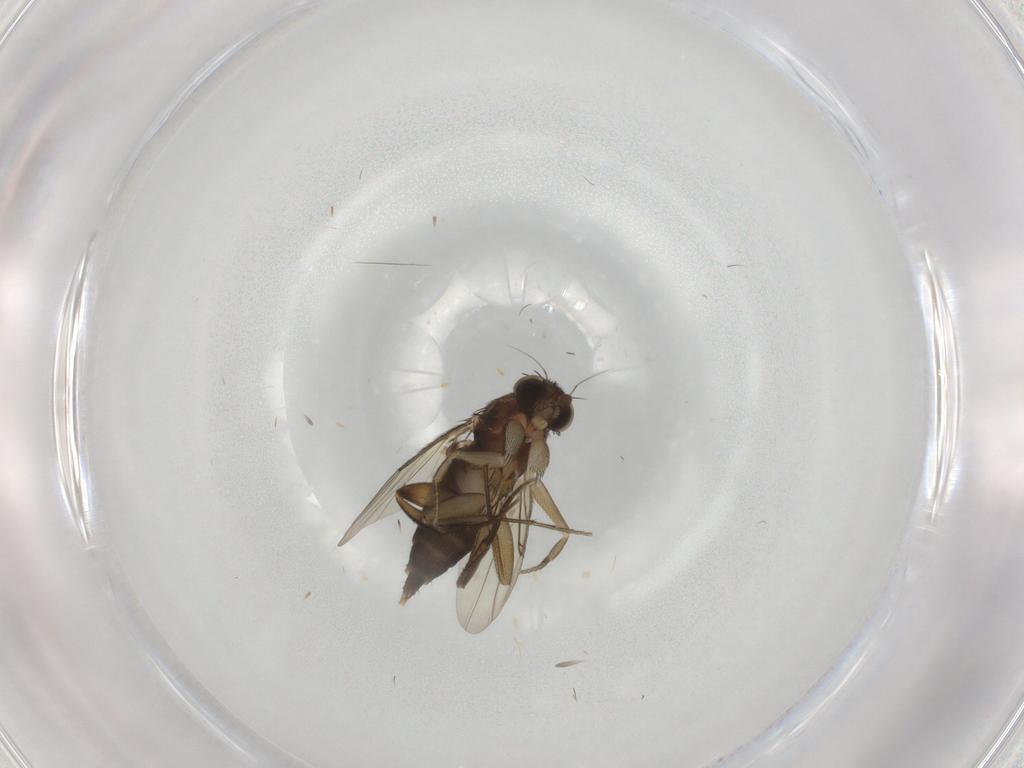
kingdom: Animalia
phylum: Arthropoda
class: Insecta
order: Diptera
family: Phoridae
